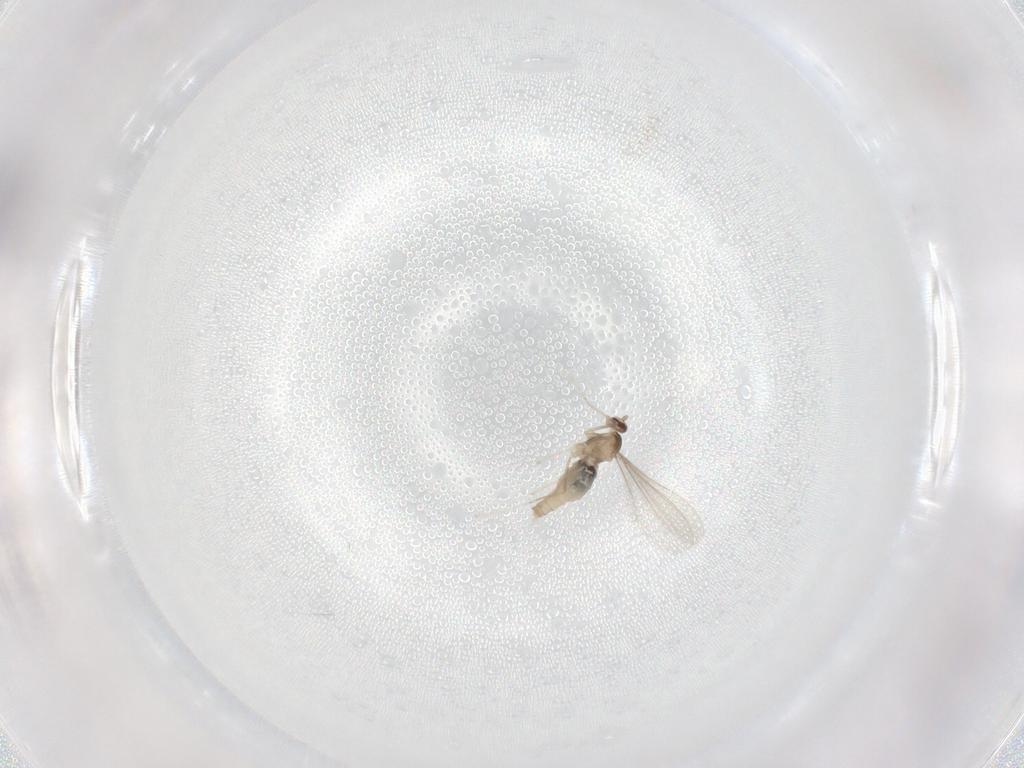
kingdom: Animalia
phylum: Arthropoda
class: Insecta
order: Diptera
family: Cecidomyiidae
